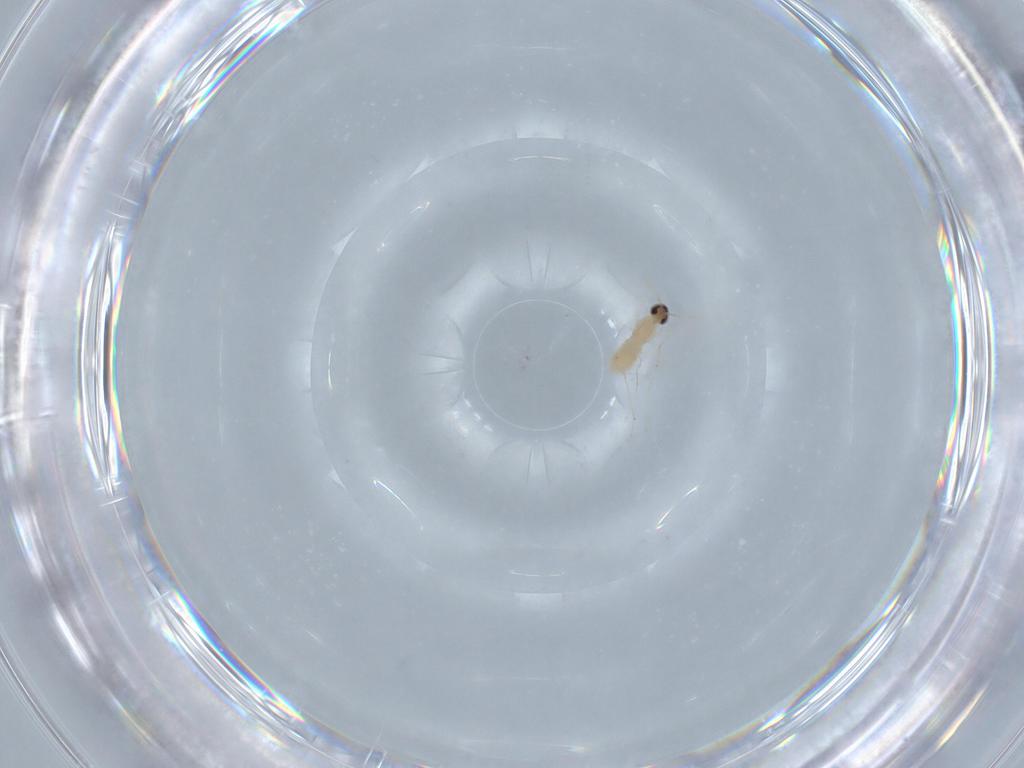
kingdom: Animalia
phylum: Arthropoda
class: Insecta
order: Diptera
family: Cecidomyiidae
